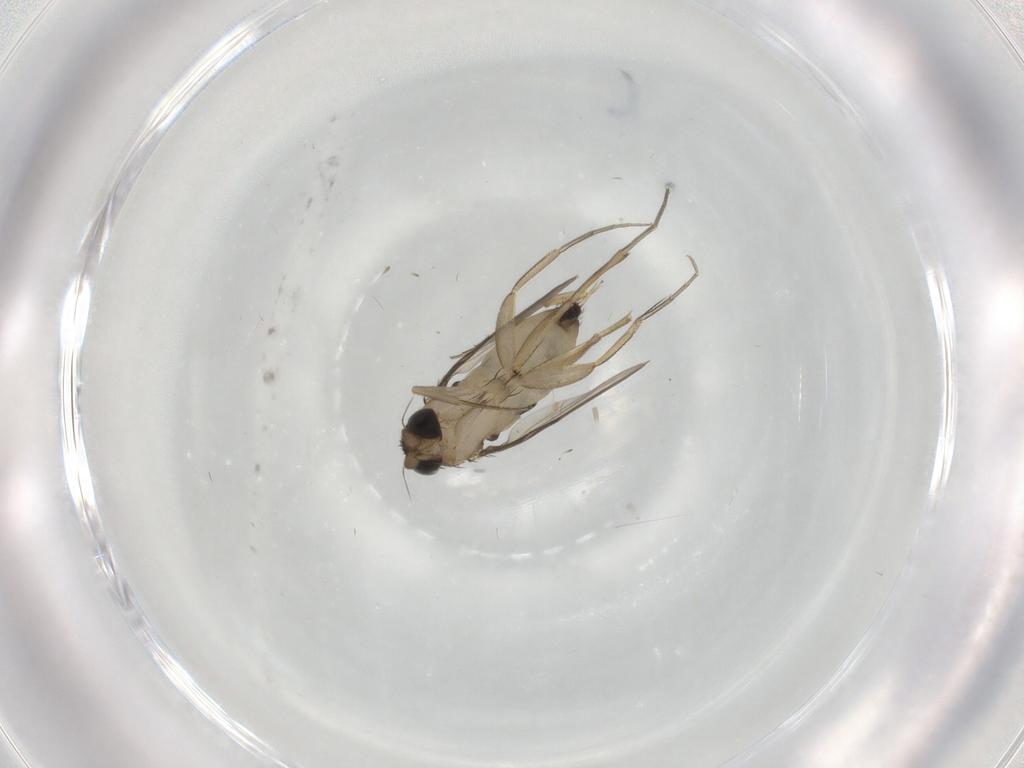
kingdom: Animalia
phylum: Arthropoda
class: Insecta
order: Diptera
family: Phoridae
